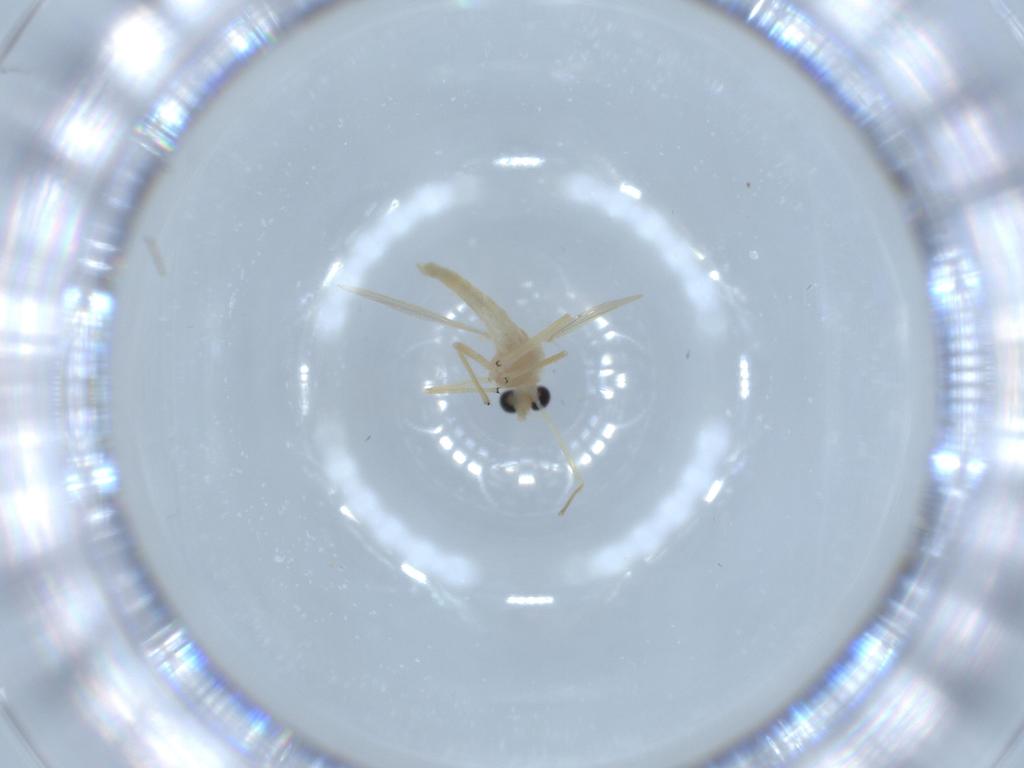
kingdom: Animalia
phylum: Arthropoda
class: Insecta
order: Diptera
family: Chironomidae
